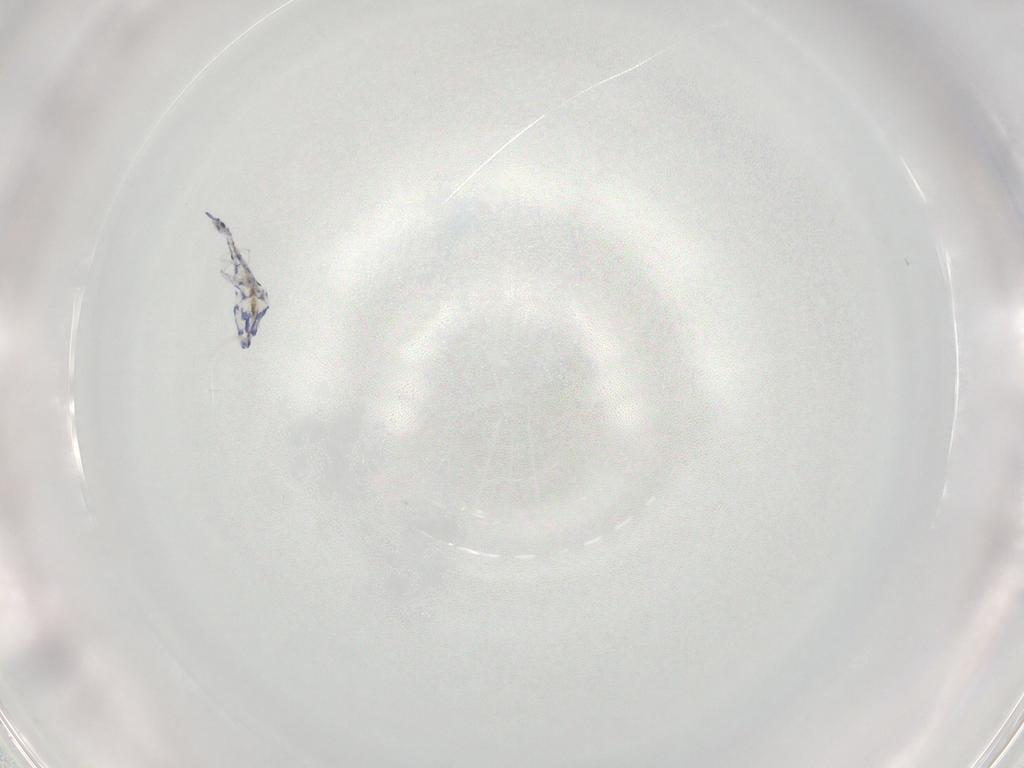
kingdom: Animalia
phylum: Arthropoda
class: Collembola
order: Entomobryomorpha
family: Entomobryidae
